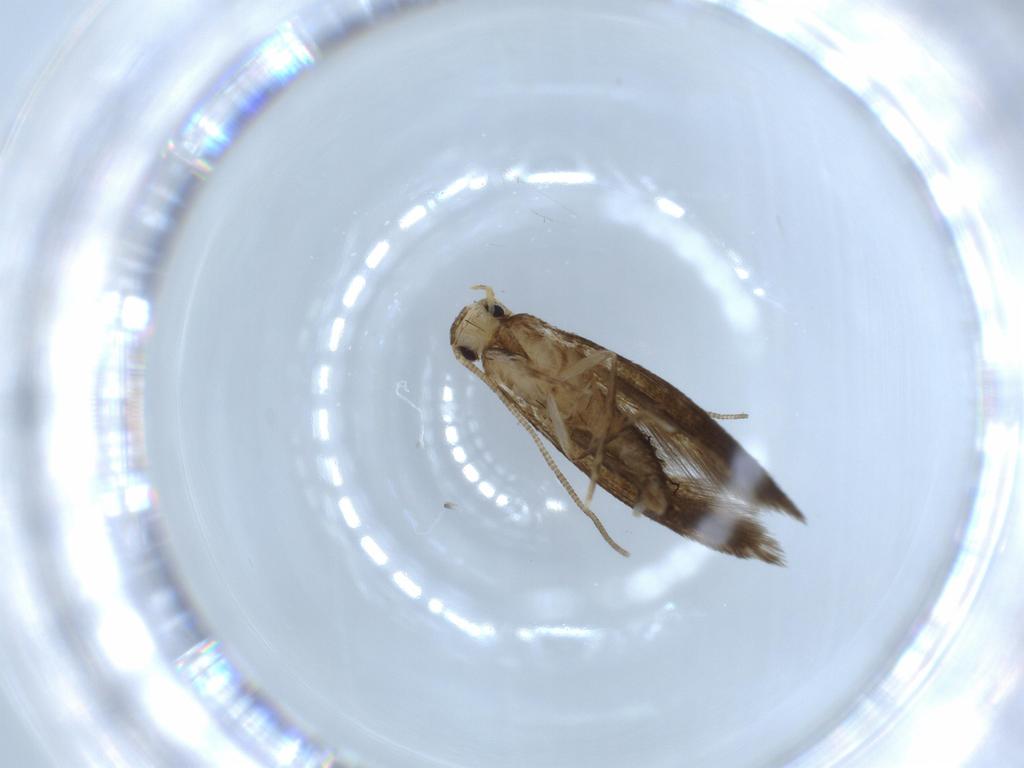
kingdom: Animalia
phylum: Arthropoda
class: Insecta
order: Lepidoptera
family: Tineidae
